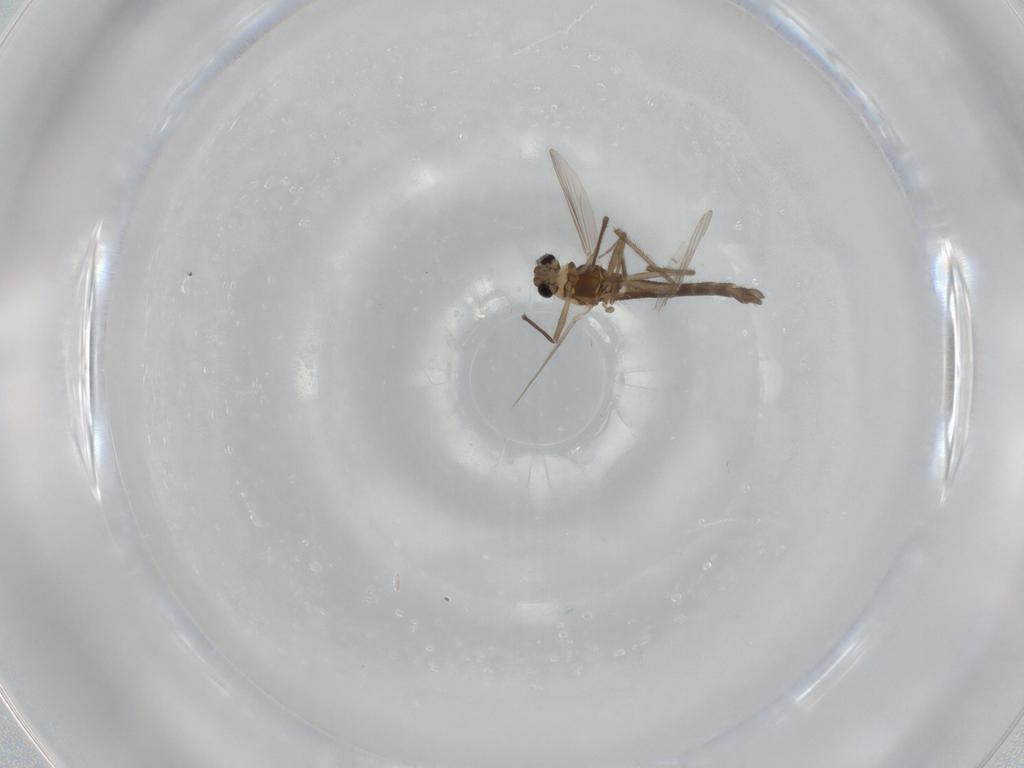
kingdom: Animalia
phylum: Arthropoda
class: Insecta
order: Diptera
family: Chironomidae
